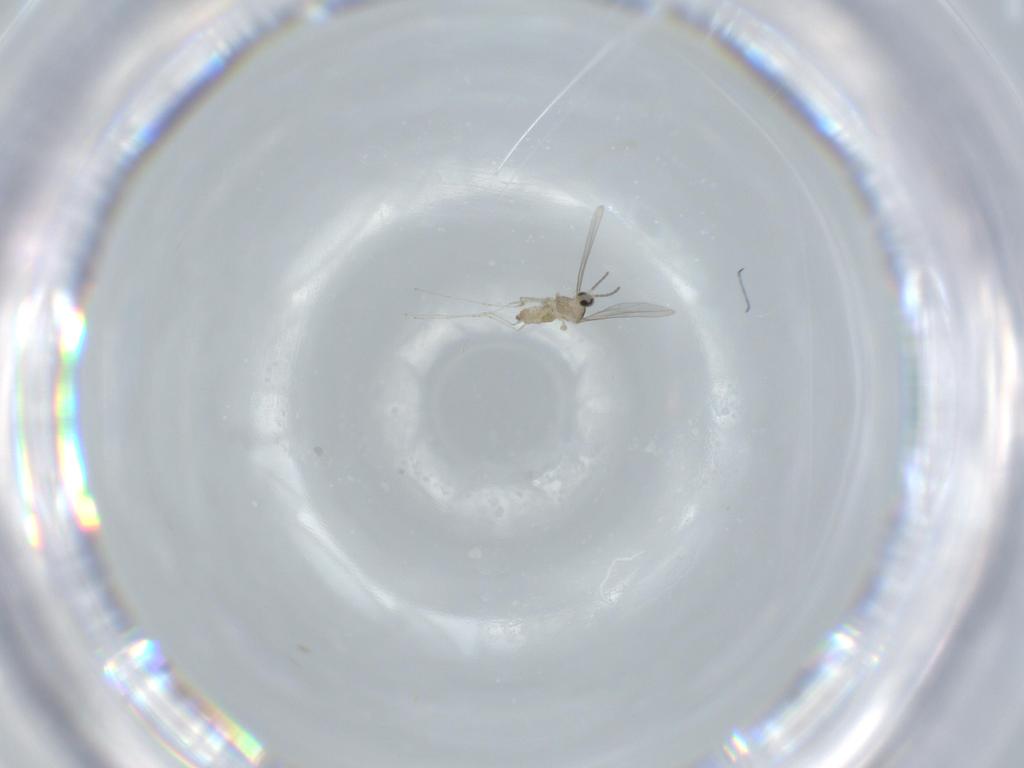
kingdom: Animalia
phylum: Arthropoda
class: Insecta
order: Diptera
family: Cecidomyiidae
